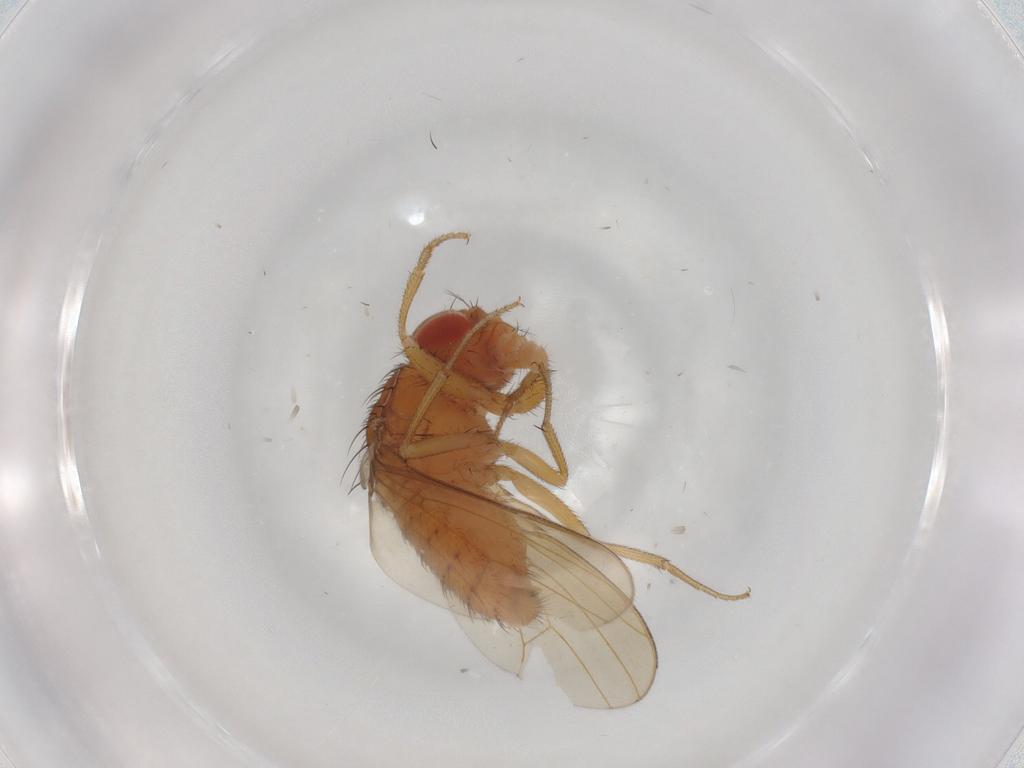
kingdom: Animalia
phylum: Arthropoda
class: Insecta
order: Diptera
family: Drosophilidae
